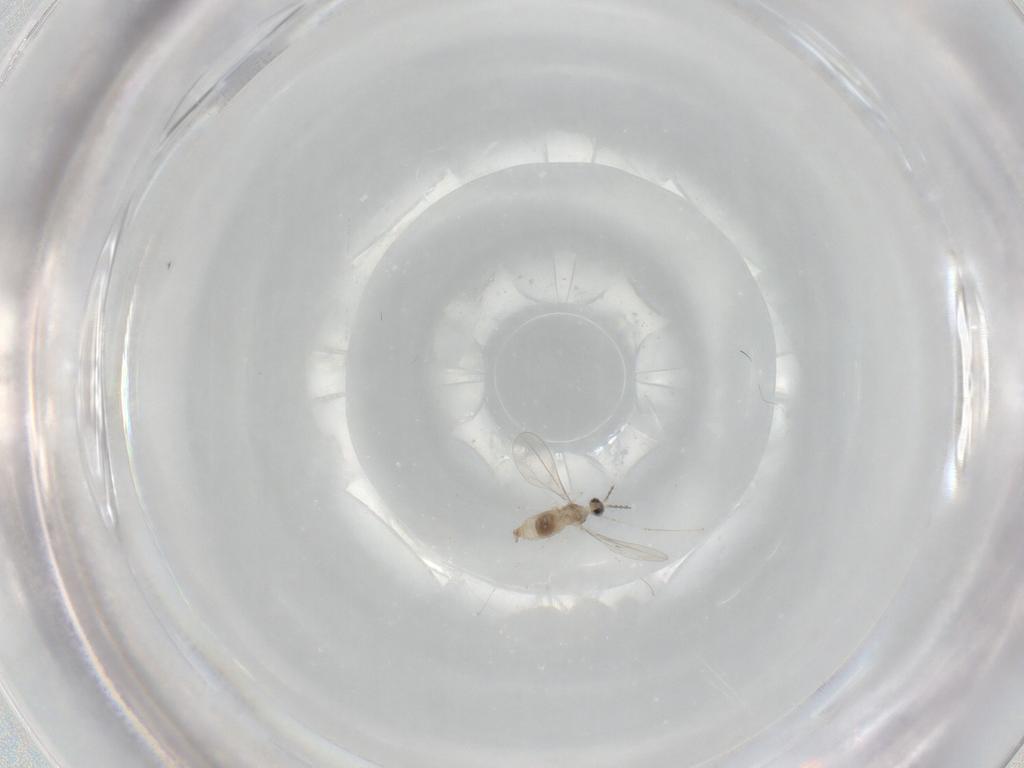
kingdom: Animalia
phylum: Arthropoda
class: Insecta
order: Diptera
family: Cecidomyiidae
